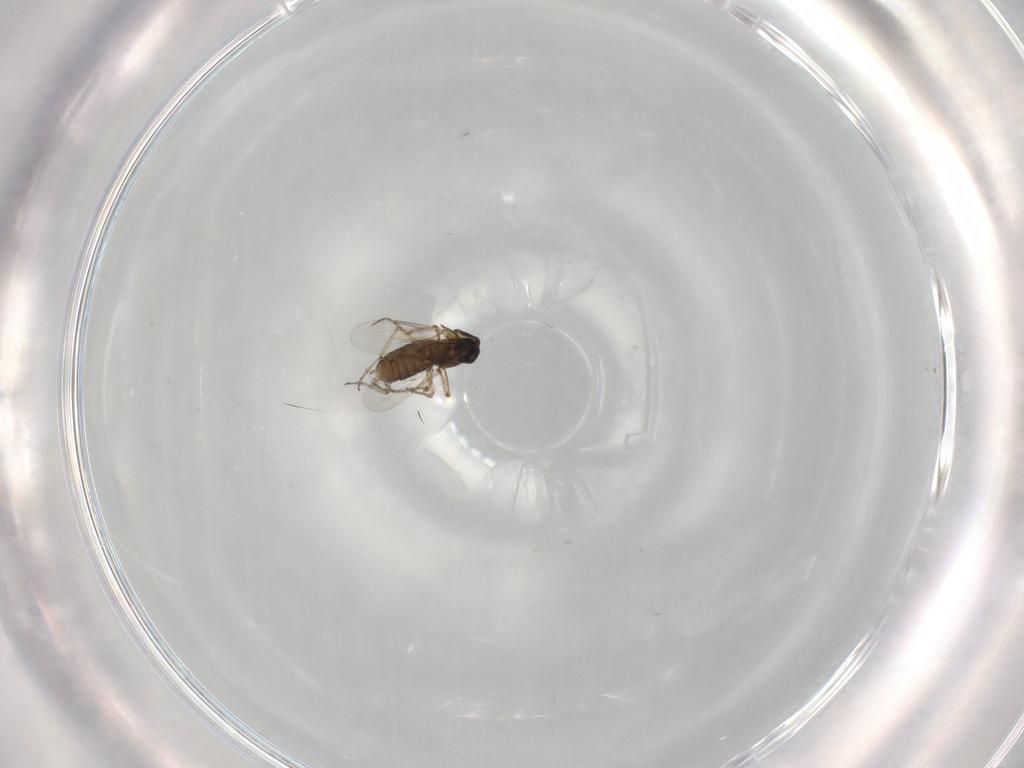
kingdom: Animalia
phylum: Arthropoda
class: Insecta
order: Diptera
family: Ceratopogonidae
